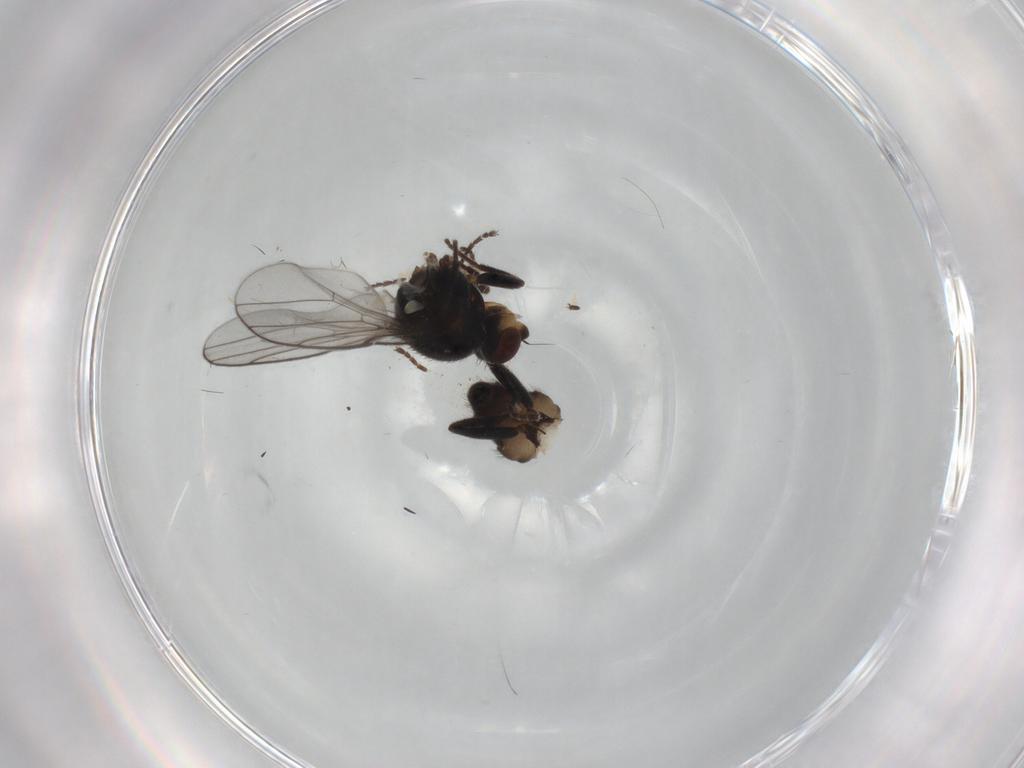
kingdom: Animalia
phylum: Arthropoda
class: Insecta
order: Diptera
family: Chloropidae
